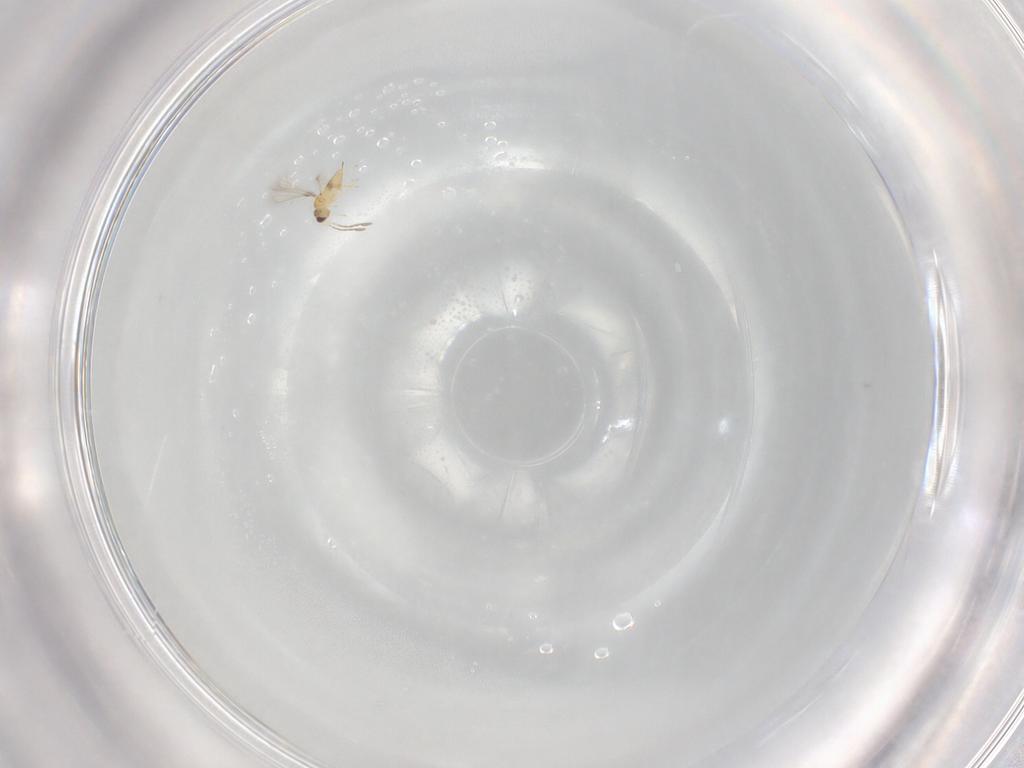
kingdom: Animalia
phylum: Arthropoda
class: Insecta
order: Hymenoptera
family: Mymaridae
